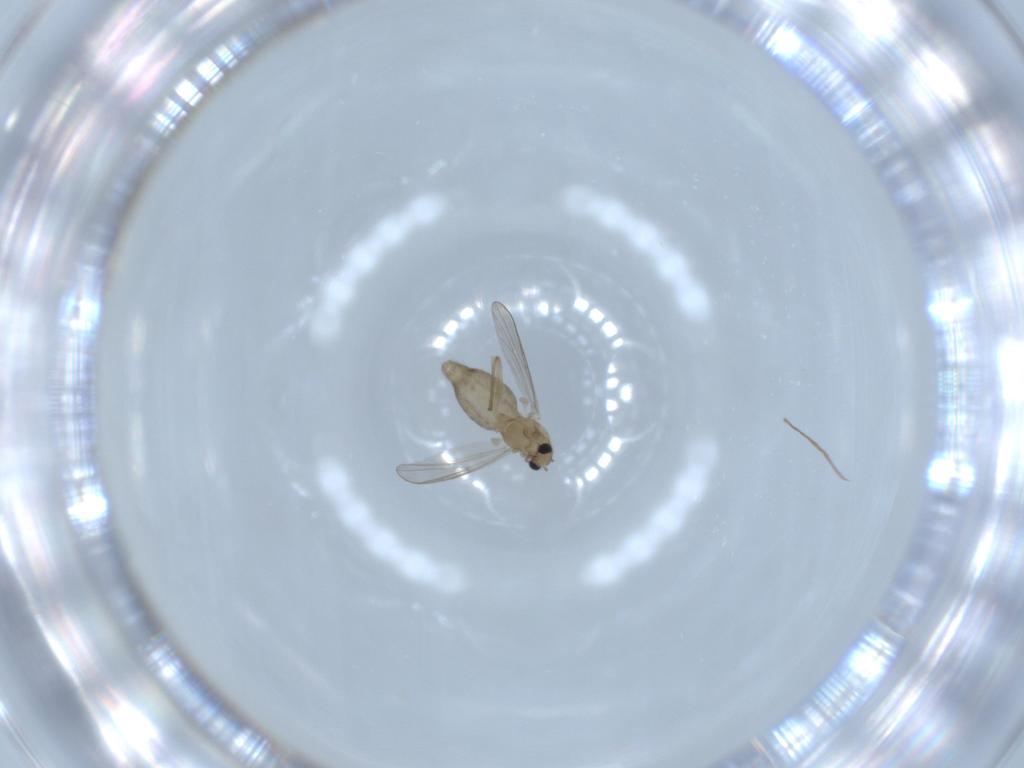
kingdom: Animalia
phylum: Arthropoda
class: Insecta
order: Diptera
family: Chironomidae
